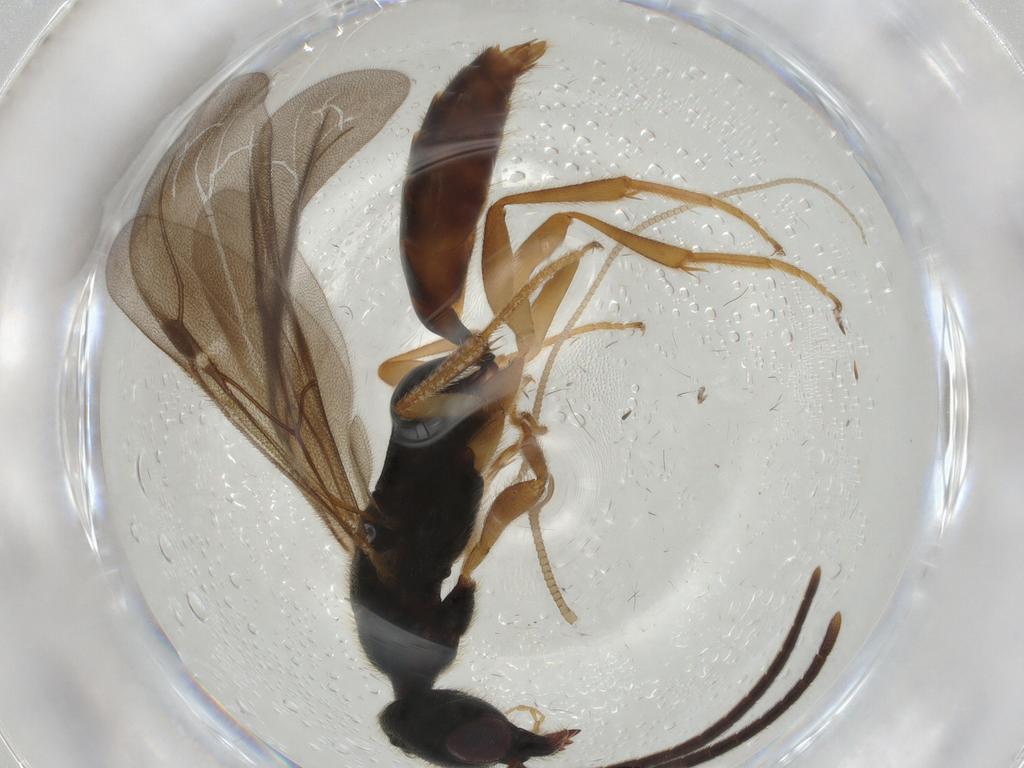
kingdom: Animalia
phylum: Arthropoda
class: Insecta
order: Hymenoptera
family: Bethylidae
